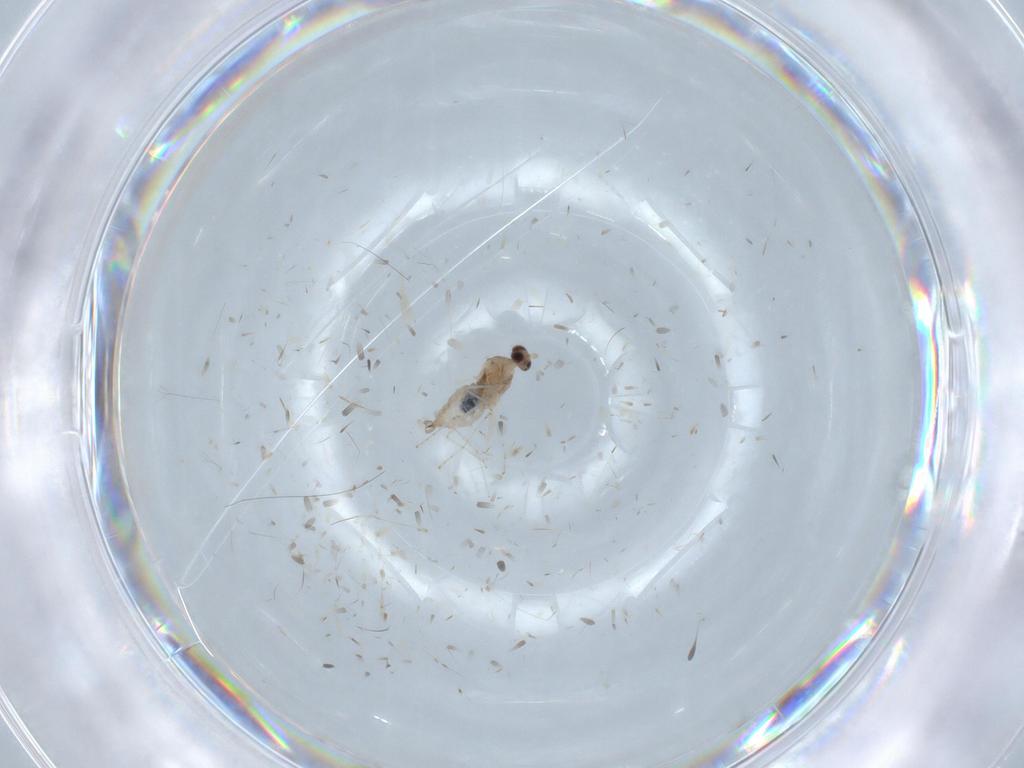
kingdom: Animalia
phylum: Arthropoda
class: Insecta
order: Diptera
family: Cecidomyiidae
